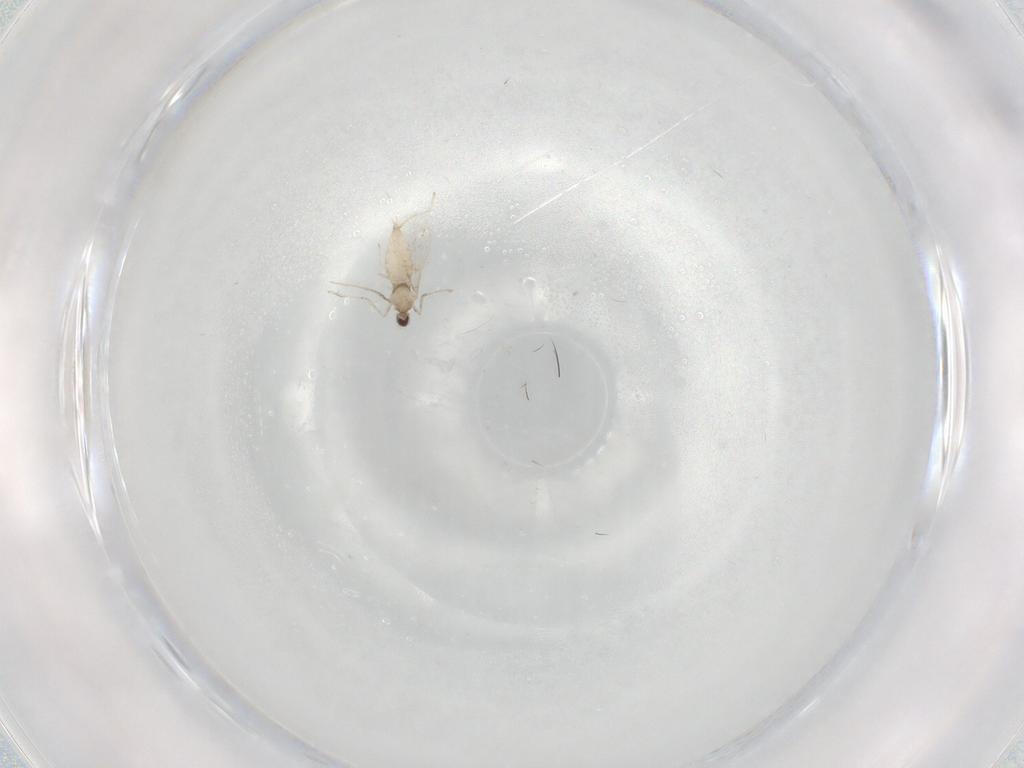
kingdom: Animalia
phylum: Arthropoda
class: Insecta
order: Diptera
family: Chironomidae
